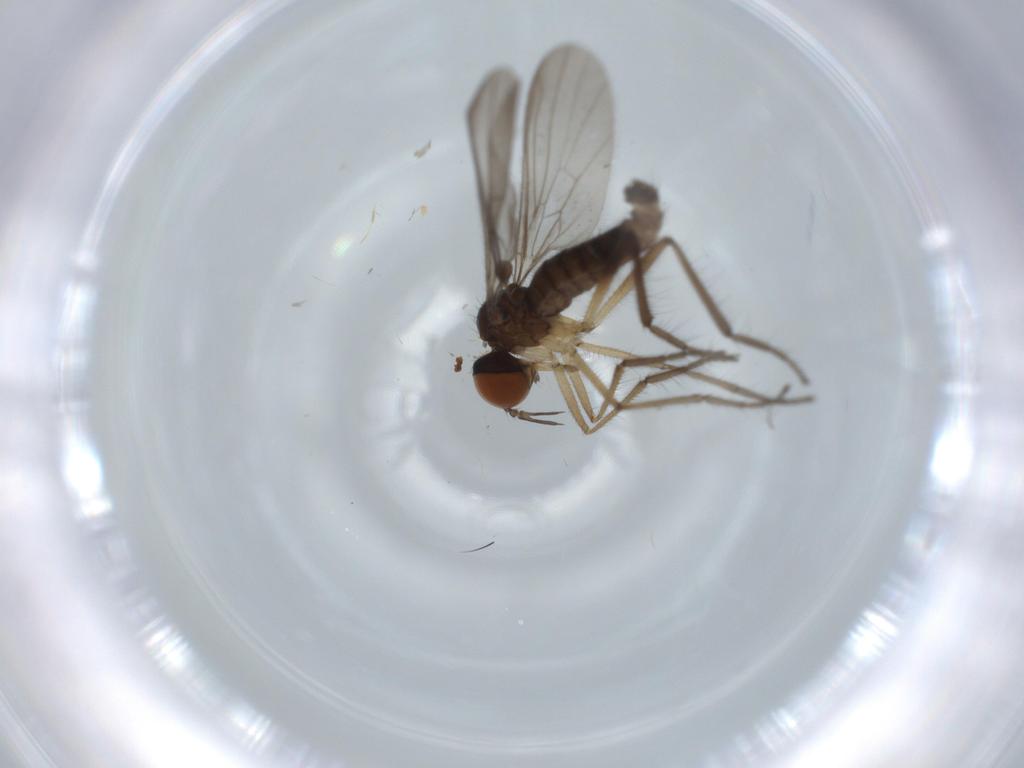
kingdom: Animalia
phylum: Arthropoda
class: Insecta
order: Diptera
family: Empididae
